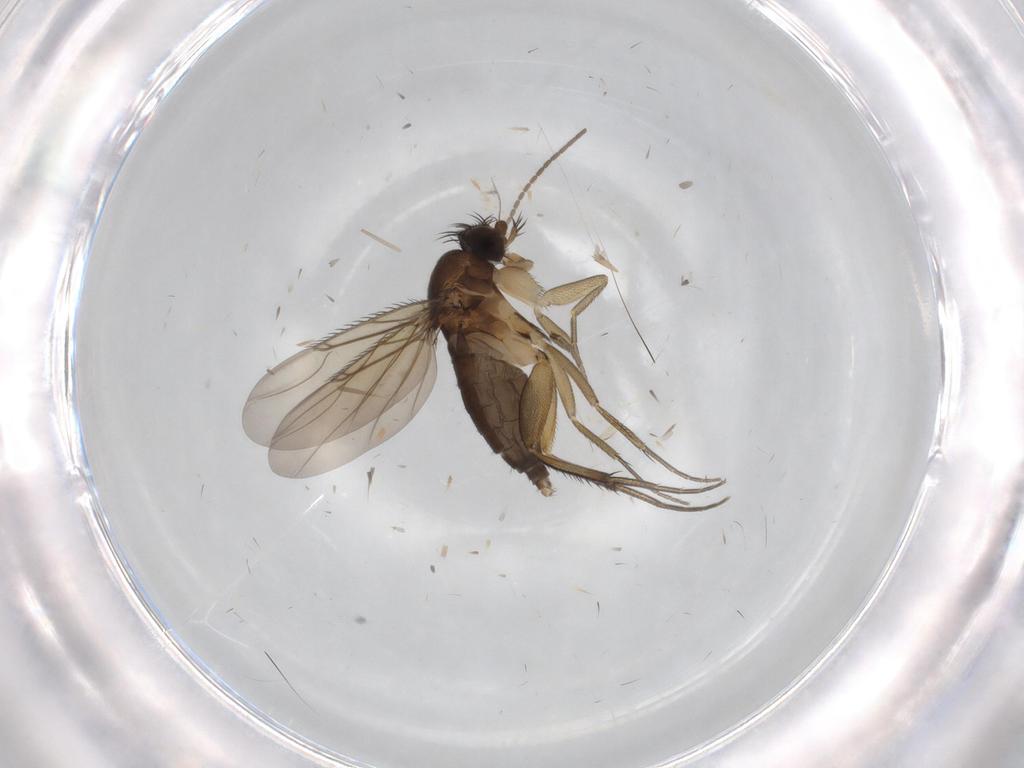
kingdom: Animalia
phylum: Arthropoda
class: Insecta
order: Diptera
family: Phoridae
